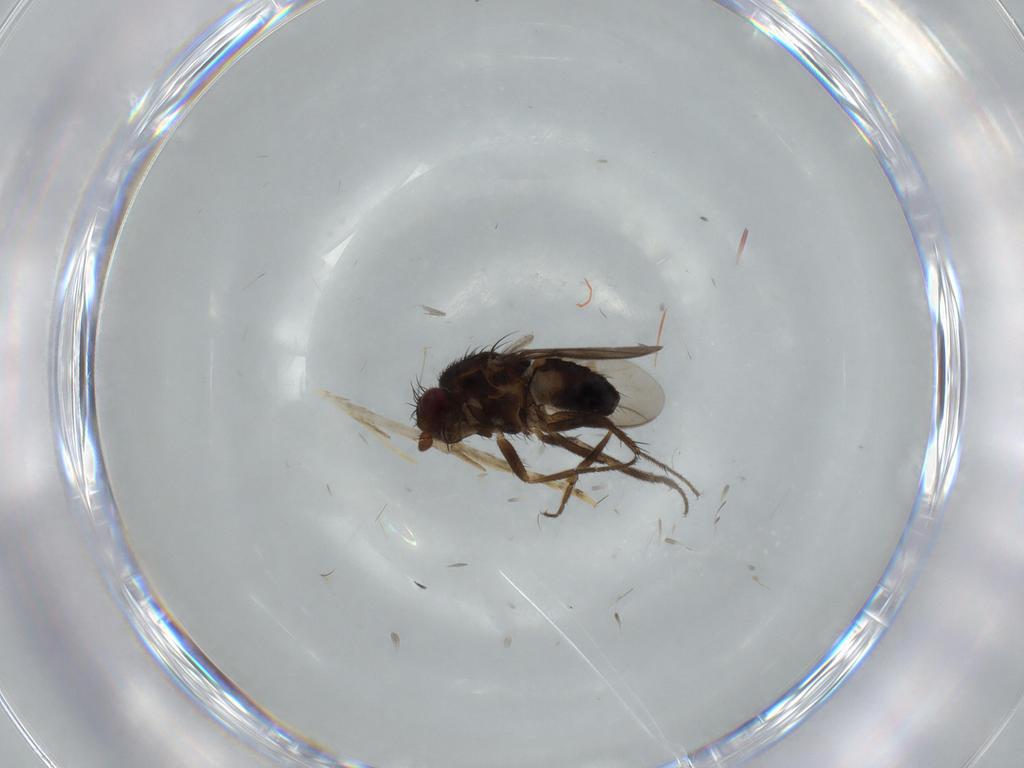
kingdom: Animalia
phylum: Arthropoda
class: Insecta
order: Diptera
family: Sphaeroceridae
